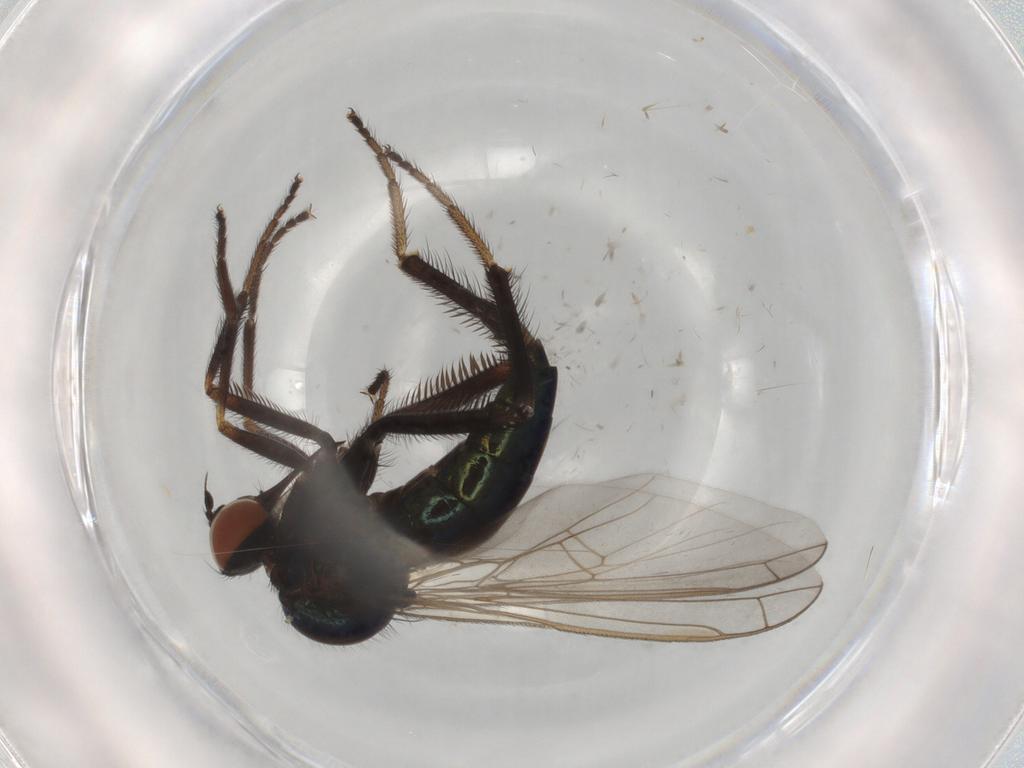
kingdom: Animalia
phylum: Arthropoda
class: Insecta
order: Diptera
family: Empididae
